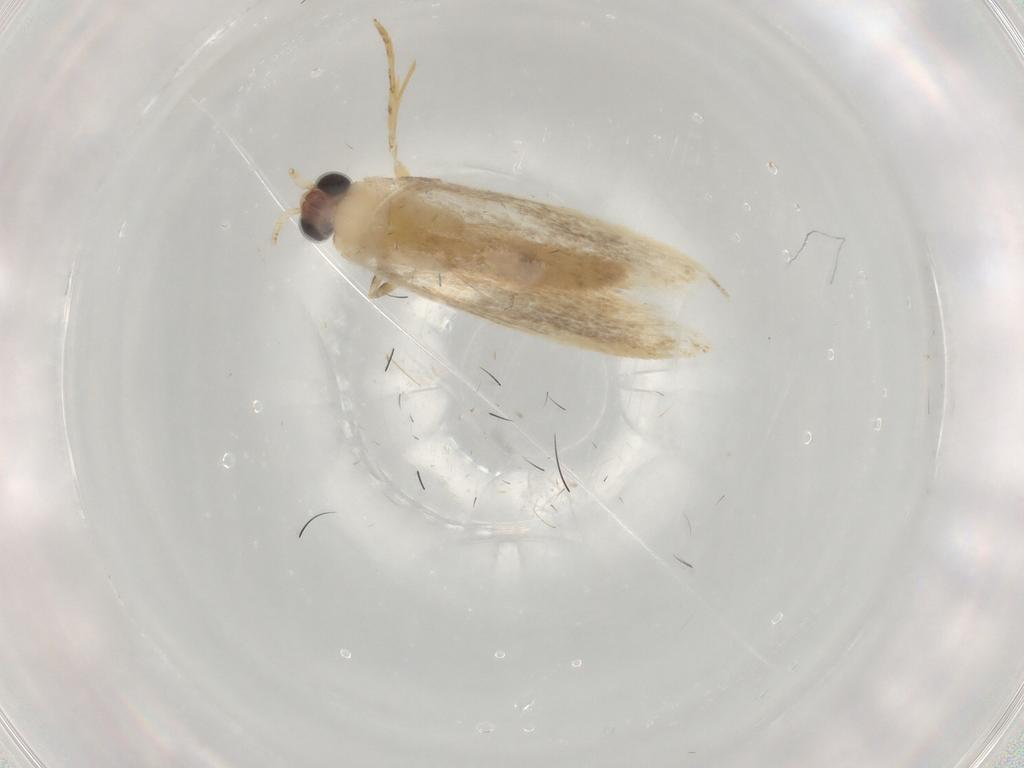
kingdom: Animalia
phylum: Arthropoda
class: Insecta
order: Lepidoptera
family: Nepticulidae
